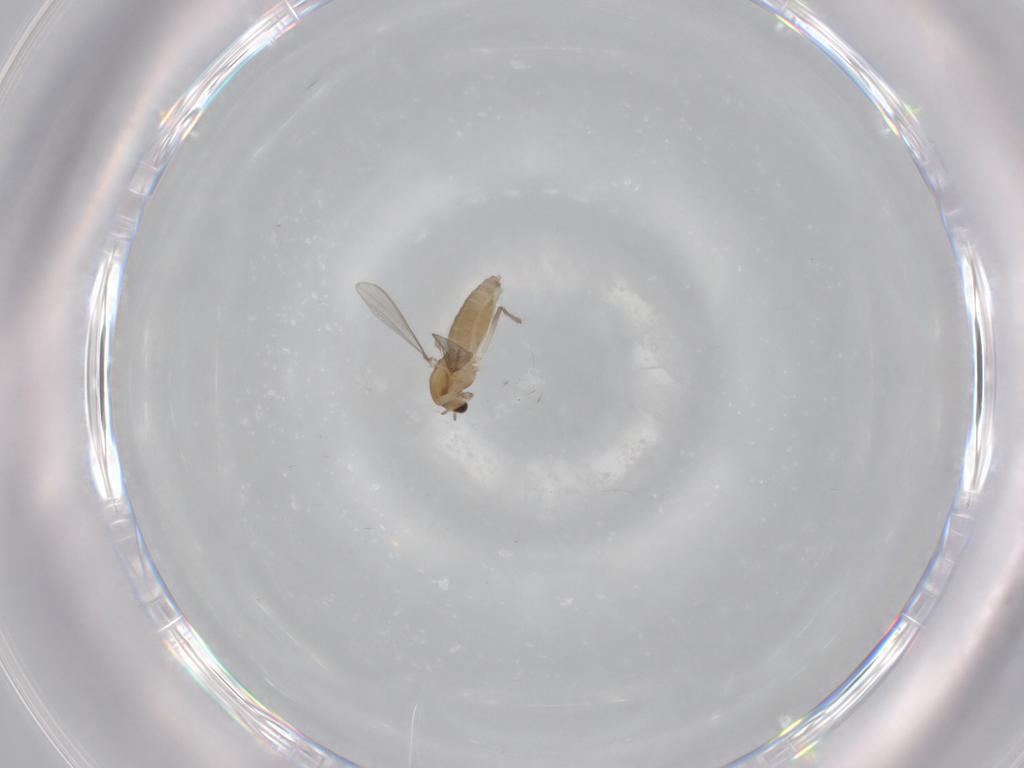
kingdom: Animalia
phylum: Arthropoda
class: Insecta
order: Diptera
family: Chironomidae
